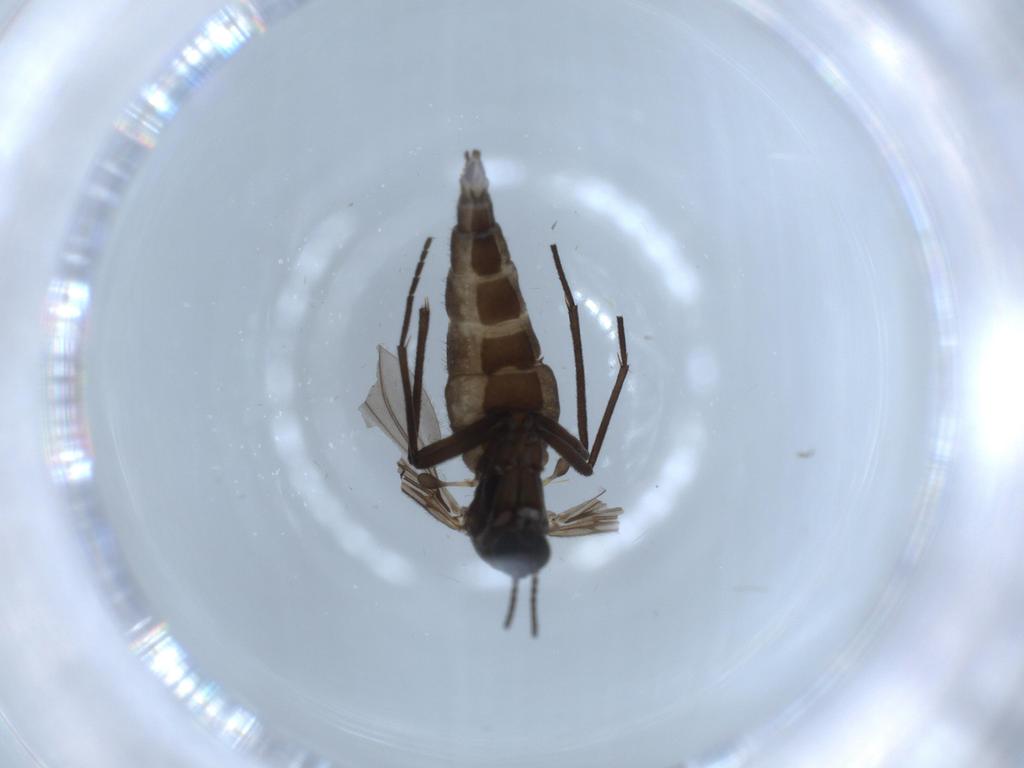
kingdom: Animalia
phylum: Arthropoda
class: Insecta
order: Diptera
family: Sciaridae
